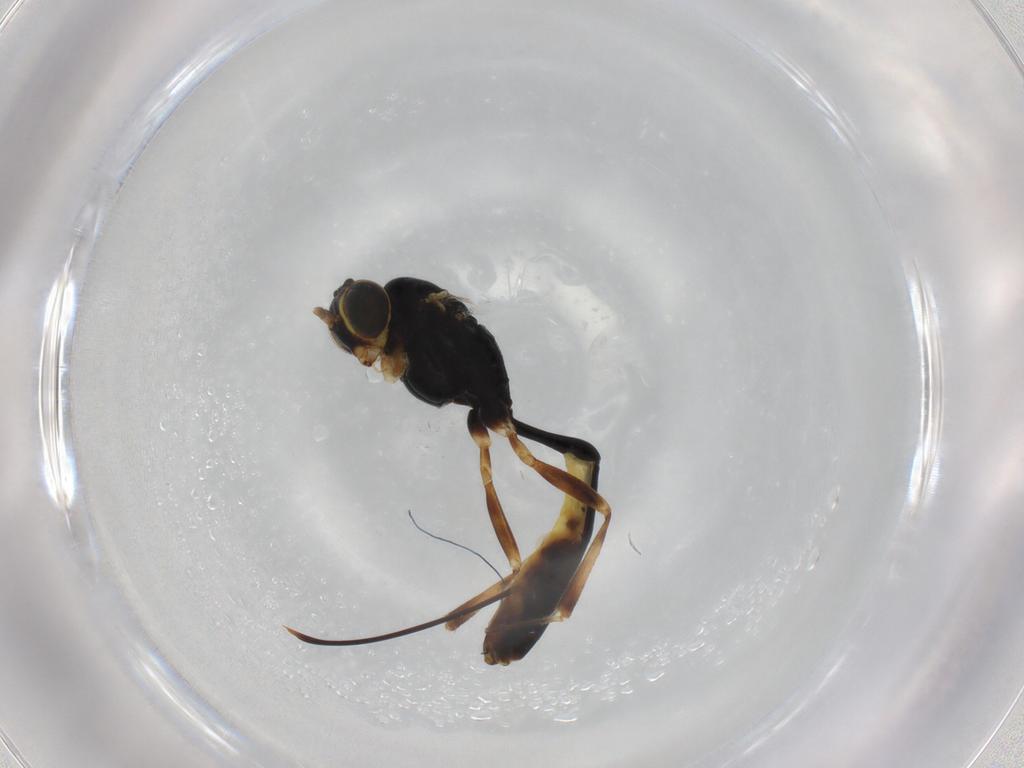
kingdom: Animalia
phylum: Arthropoda
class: Insecta
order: Hymenoptera
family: Ichneumonidae
